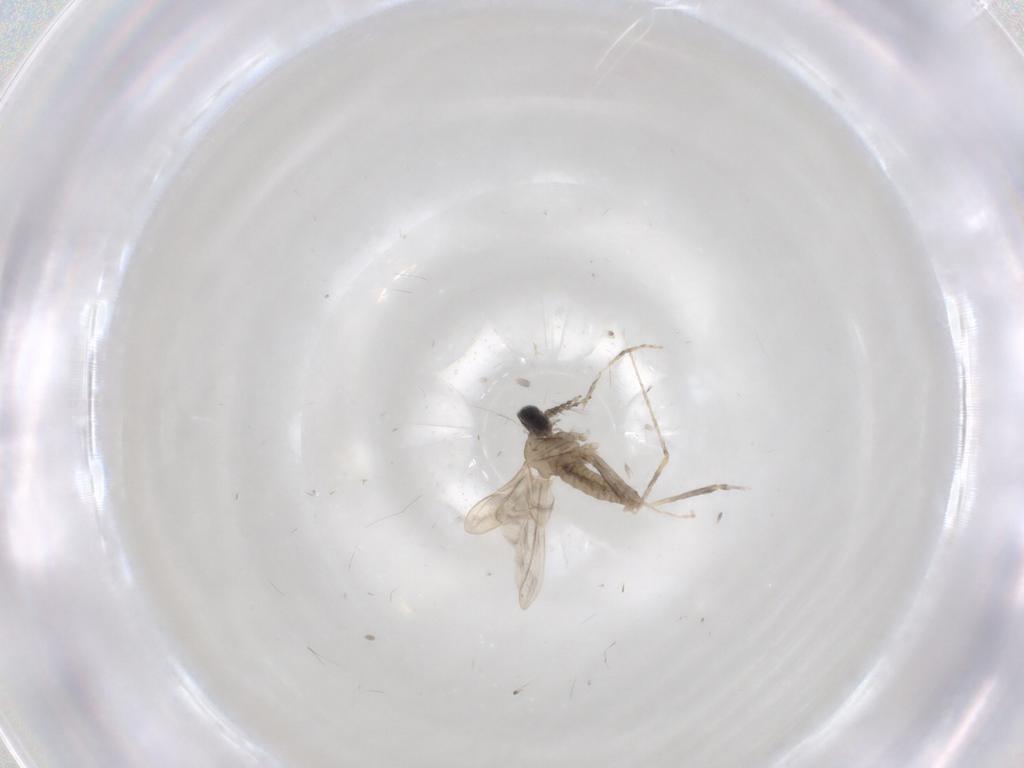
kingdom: Animalia
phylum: Arthropoda
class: Insecta
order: Diptera
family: Cecidomyiidae
